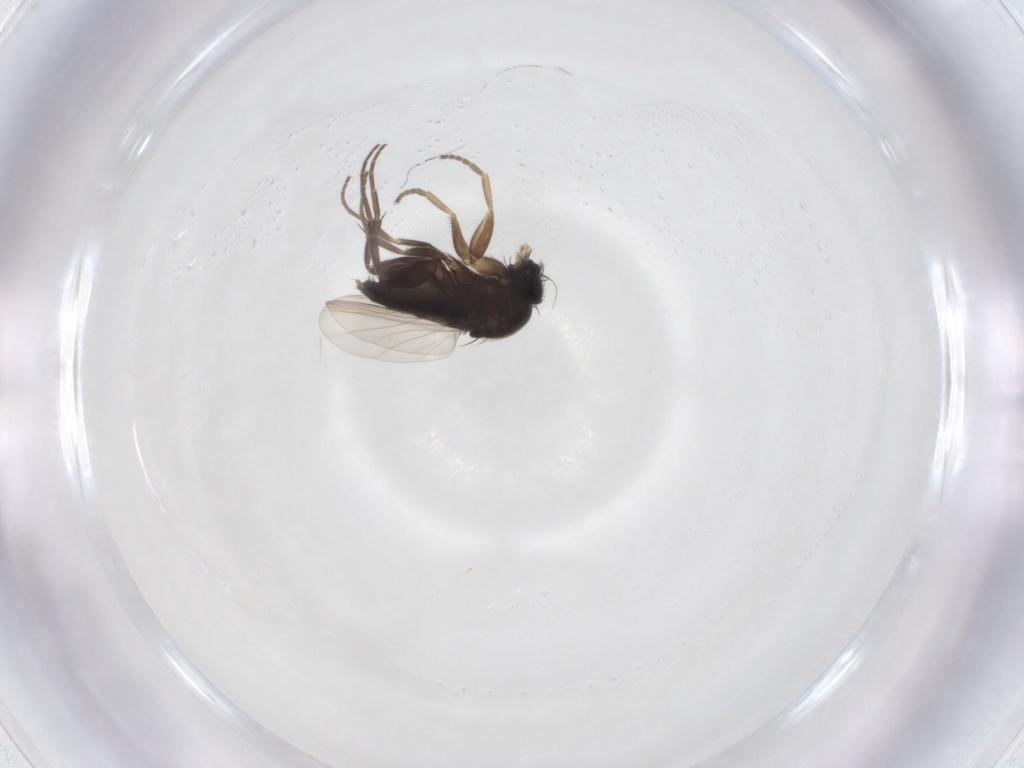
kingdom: Animalia
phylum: Arthropoda
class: Insecta
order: Diptera
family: Phoridae
